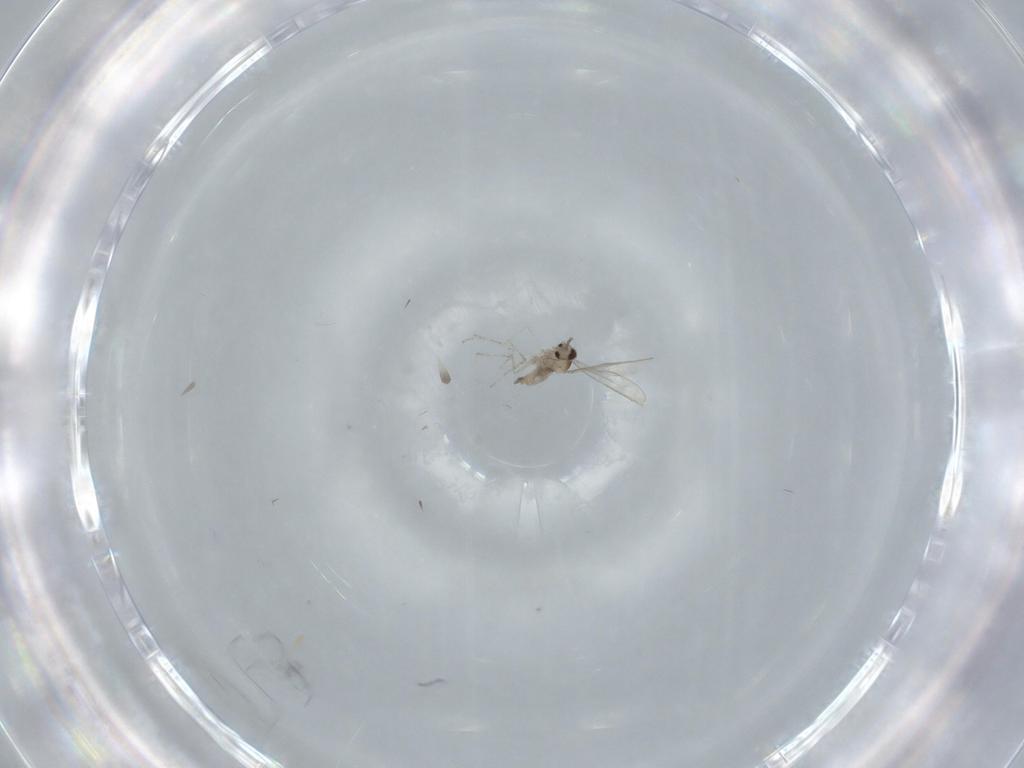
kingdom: Animalia
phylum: Arthropoda
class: Insecta
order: Diptera
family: Cecidomyiidae
